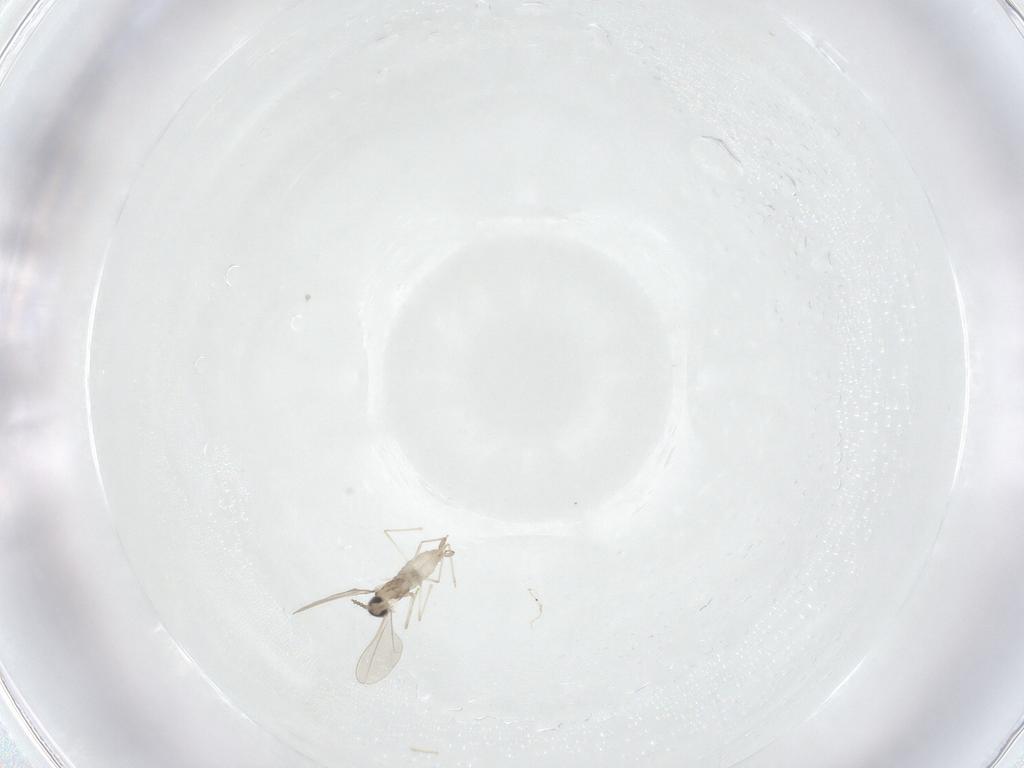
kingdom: Animalia
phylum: Arthropoda
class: Insecta
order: Diptera
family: Cecidomyiidae
